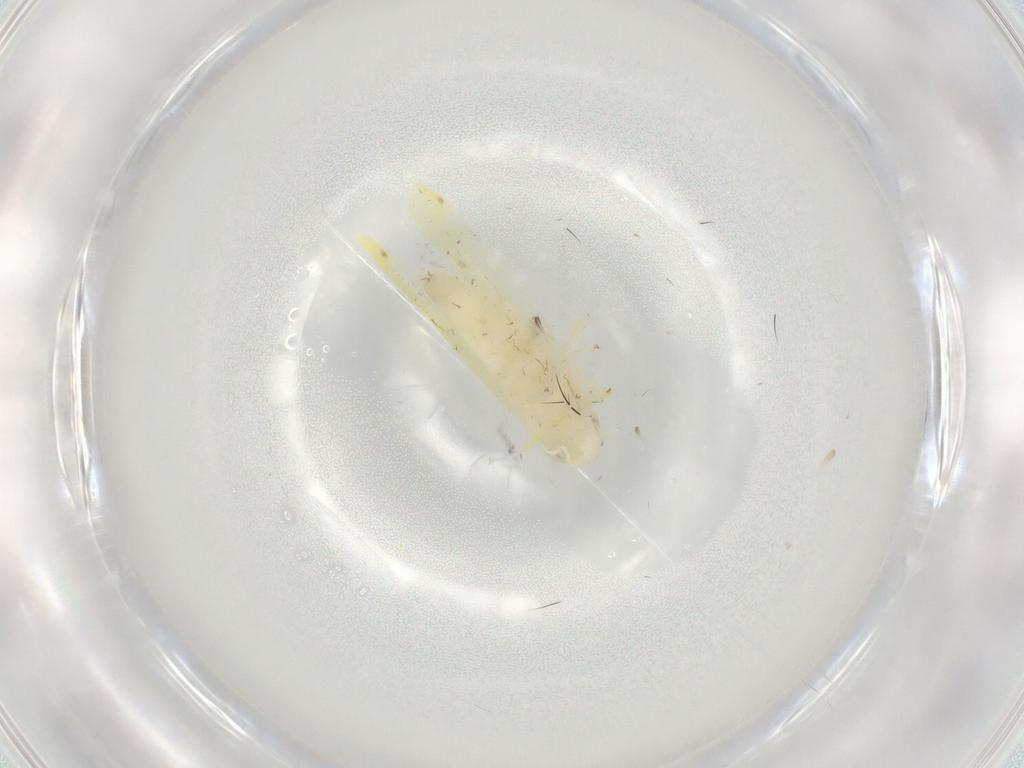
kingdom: Animalia
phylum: Arthropoda
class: Insecta
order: Hemiptera
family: Cicadellidae
